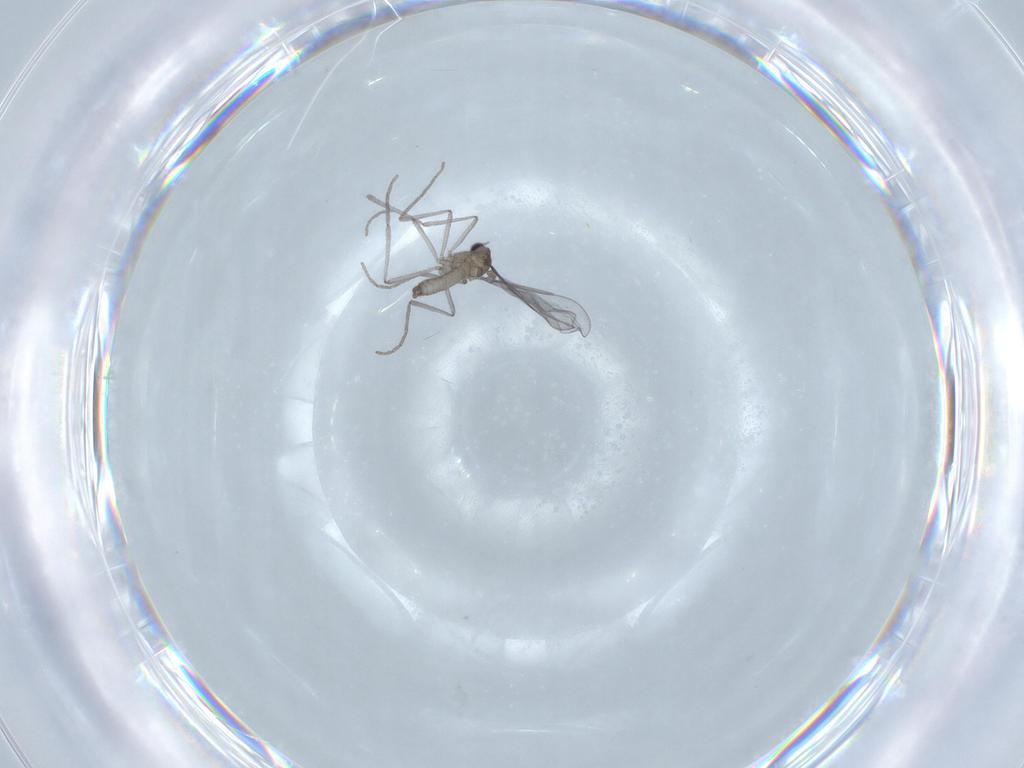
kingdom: Animalia
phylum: Arthropoda
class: Insecta
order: Diptera
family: Cecidomyiidae
